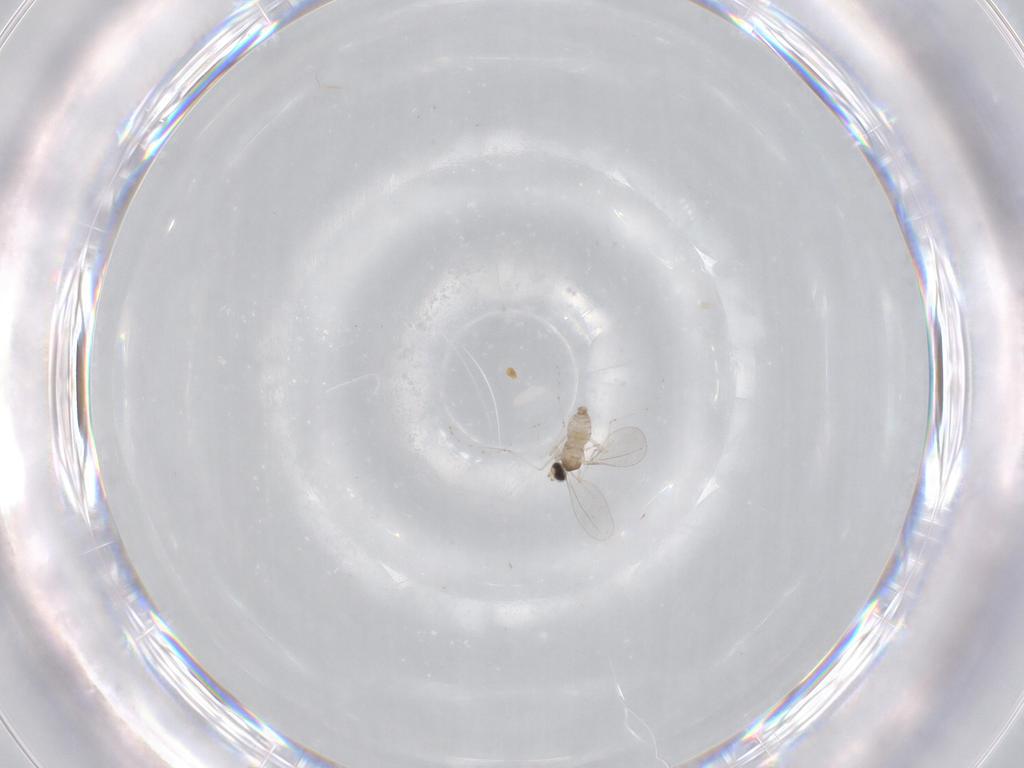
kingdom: Animalia
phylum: Arthropoda
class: Insecta
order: Diptera
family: Cecidomyiidae
